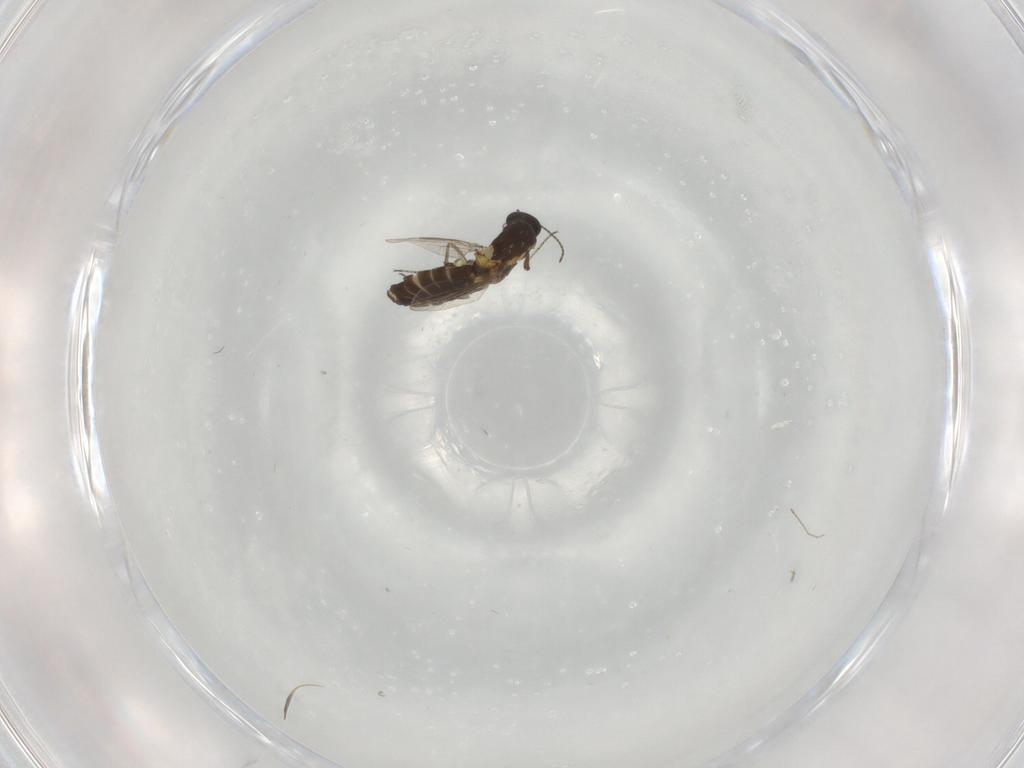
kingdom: Animalia
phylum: Arthropoda
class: Insecta
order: Diptera
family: Ceratopogonidae
